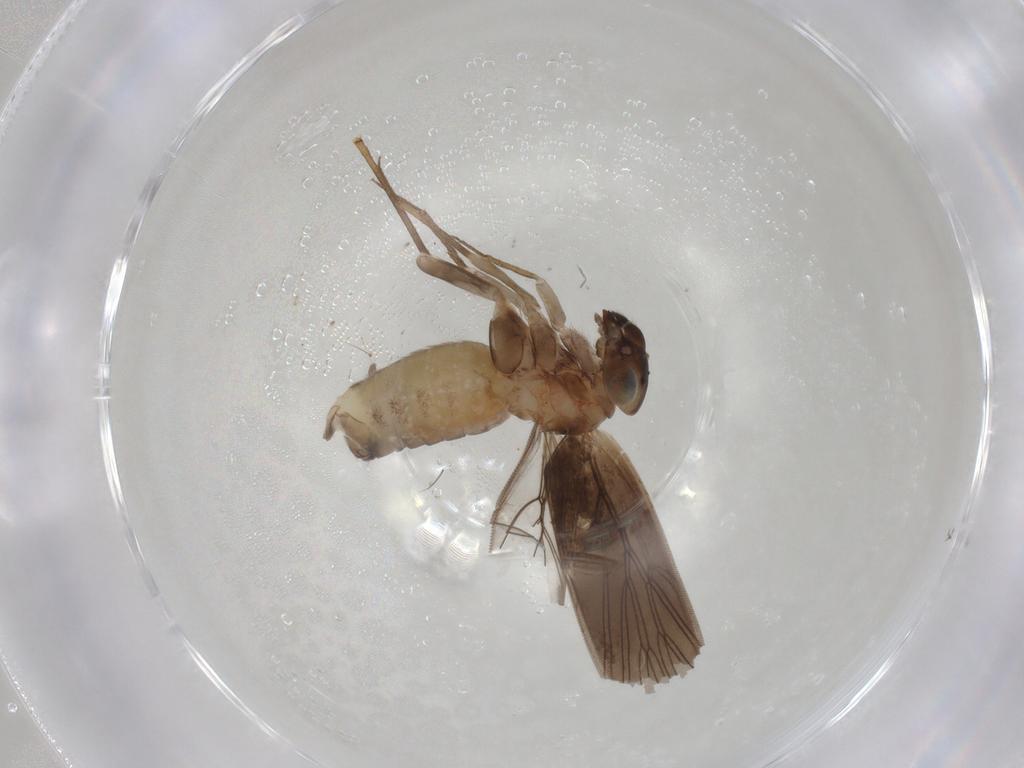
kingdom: Animalia
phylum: Arthropoda
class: Insecta
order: Psocodea
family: Lepidopsocidae
